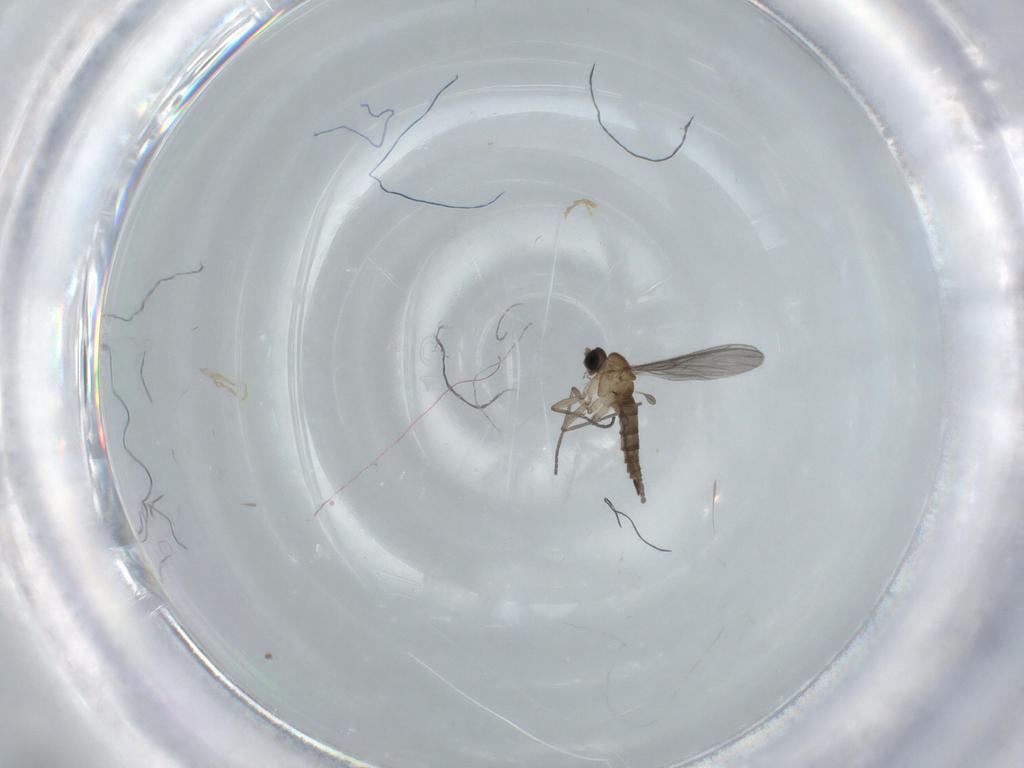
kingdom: Animalia
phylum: Arthropoda
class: Insecta
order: Diptera
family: Sciaridae
